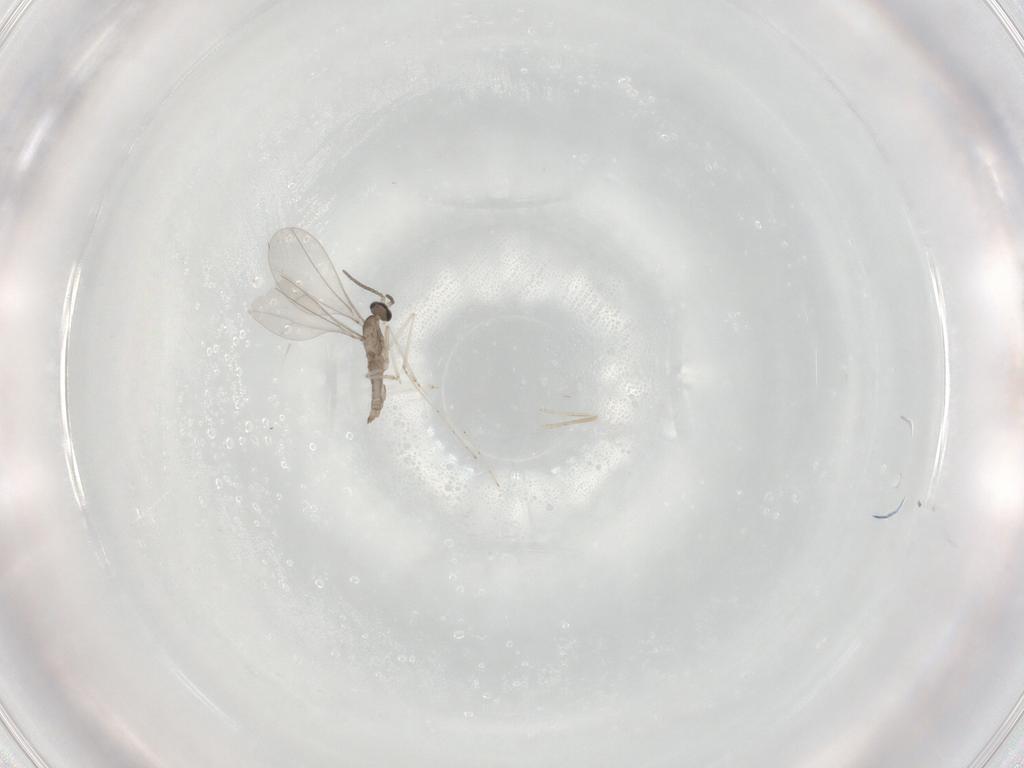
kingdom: Animalia
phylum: Arthropoda
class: Insecta
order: Diptera
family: Cecidomyiidae
